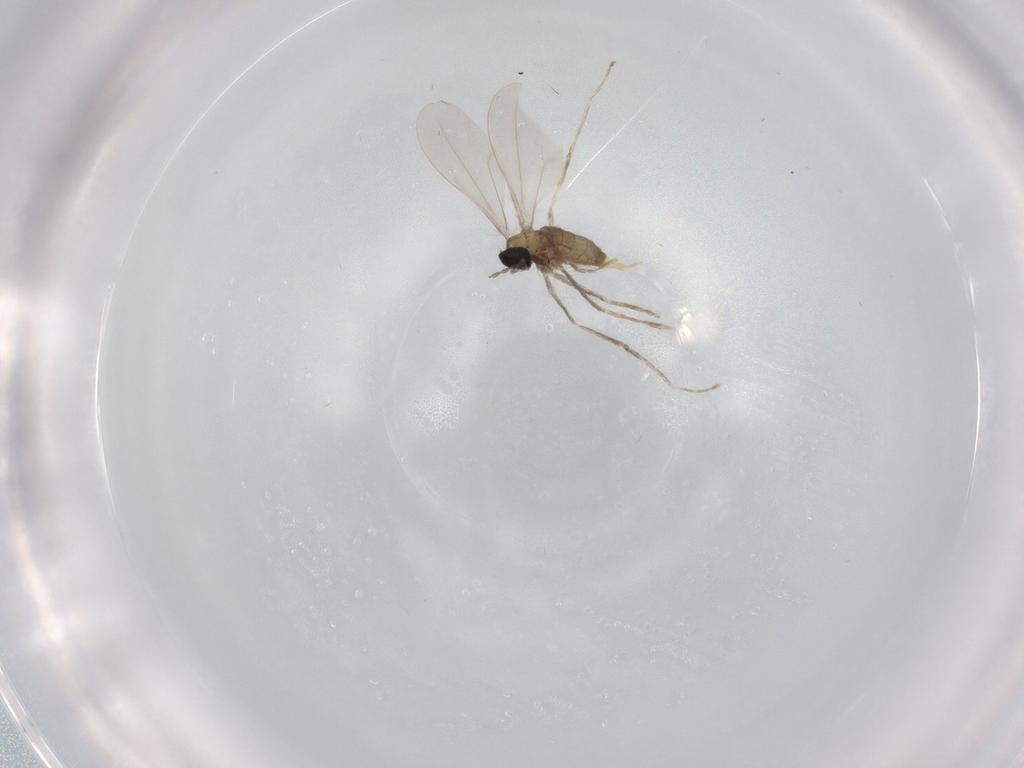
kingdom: Animalia
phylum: Arthropoda
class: Insecta
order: Diptera
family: Cecidomyiidae
